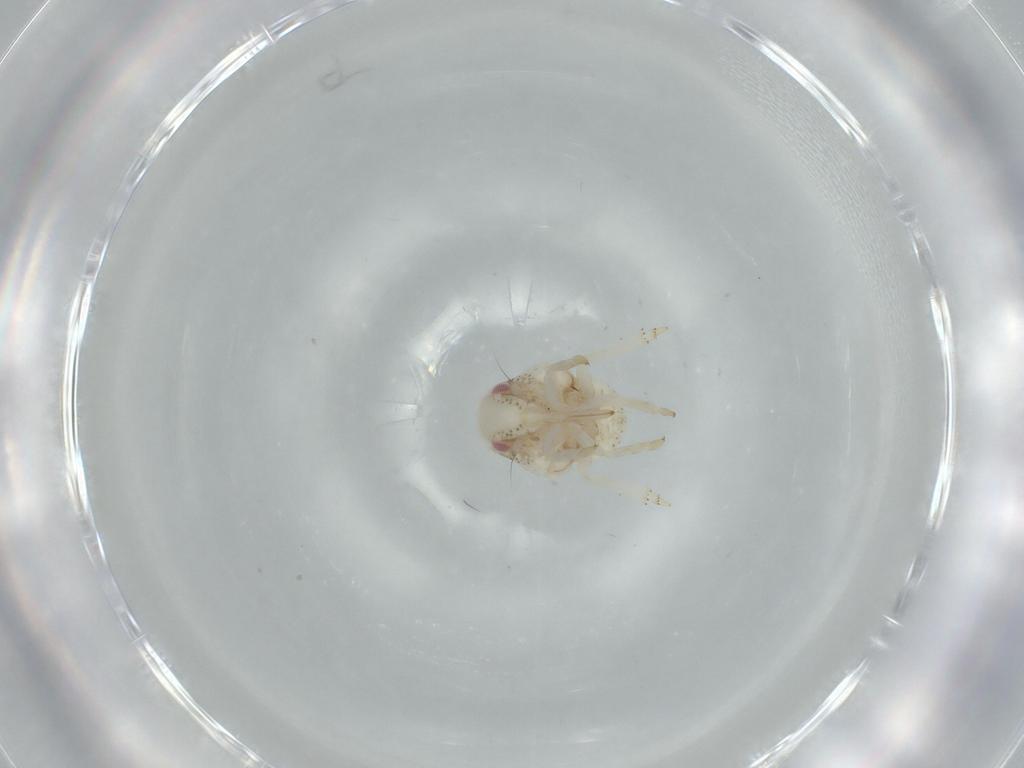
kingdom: Animalia
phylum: Arthropoda
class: Insecta
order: Hemiptera
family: Acanaloniidae
